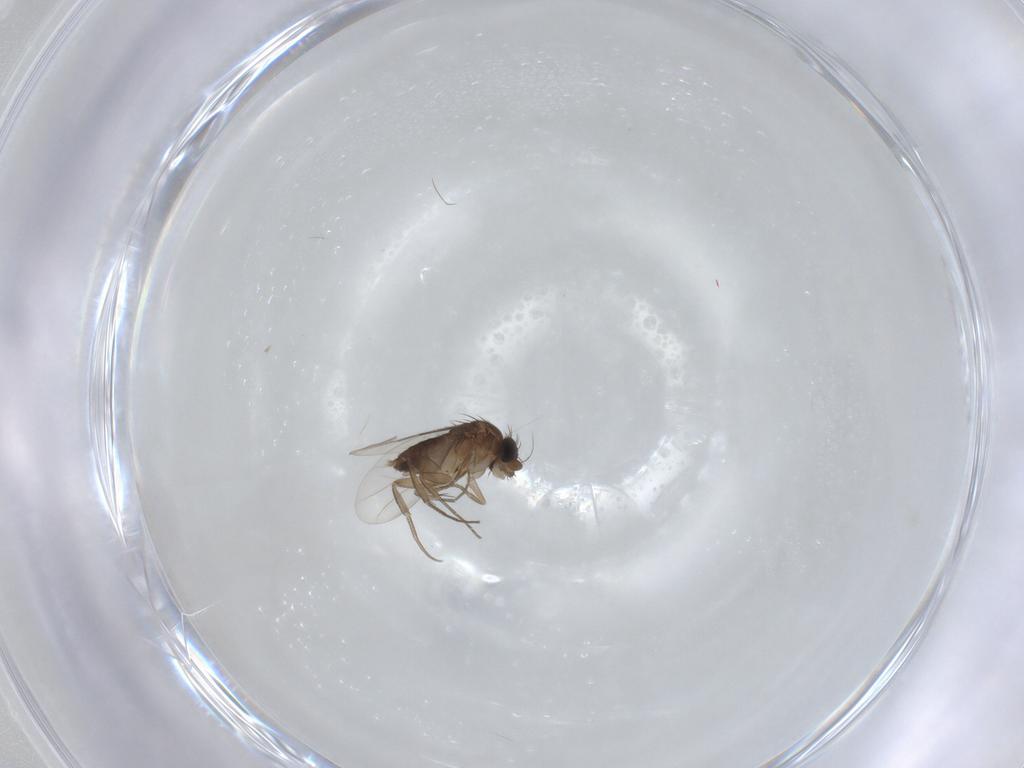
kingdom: Animalia
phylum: Arthropoda
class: Insecta
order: Diptera
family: Phoridae
